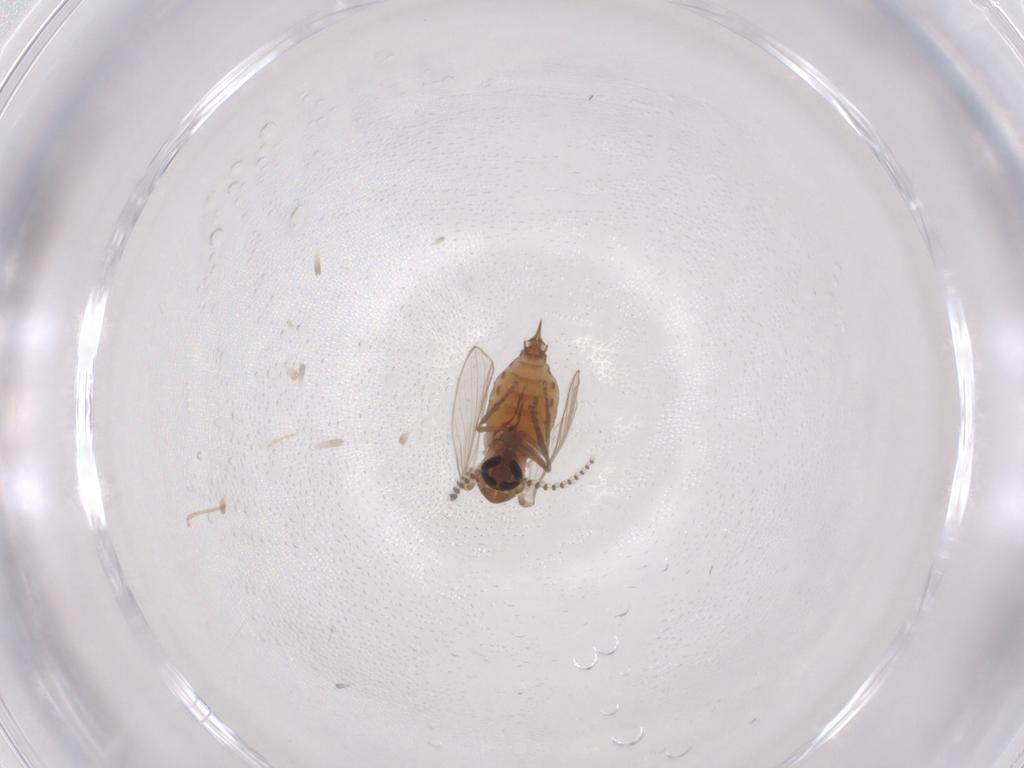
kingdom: Animalia
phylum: Arthropoda
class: Insecta
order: Diptera
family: Psychodidae
